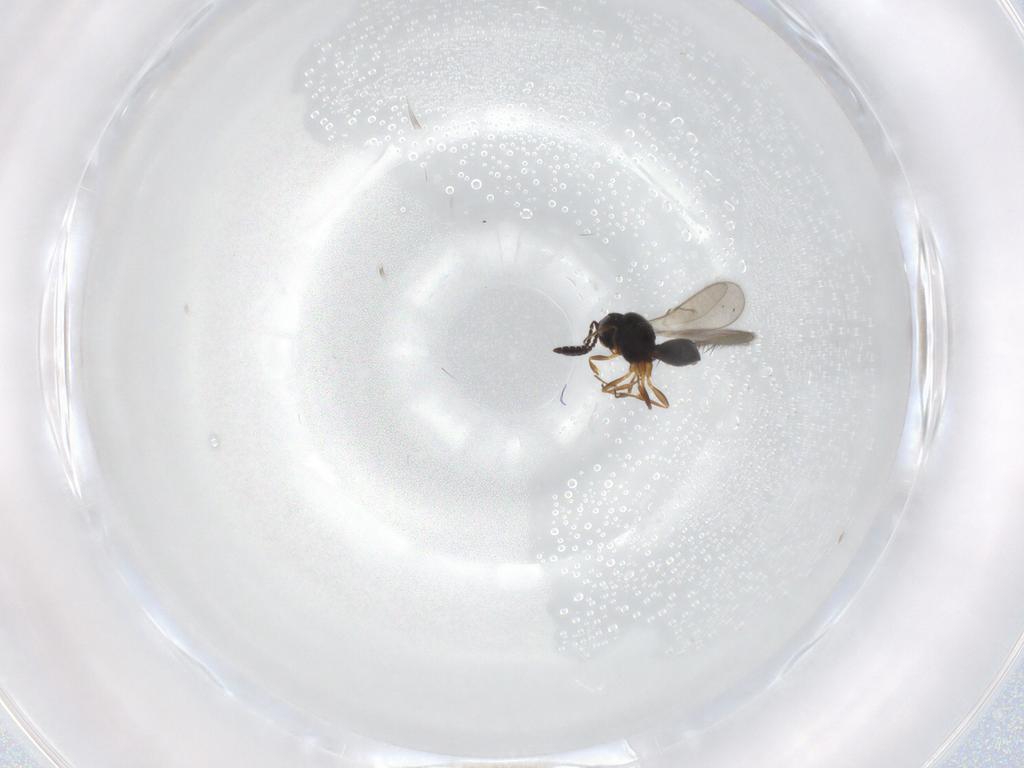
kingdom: Animalia
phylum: Arthropoda
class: Insecta
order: Hymenoptera
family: Scelionidae
